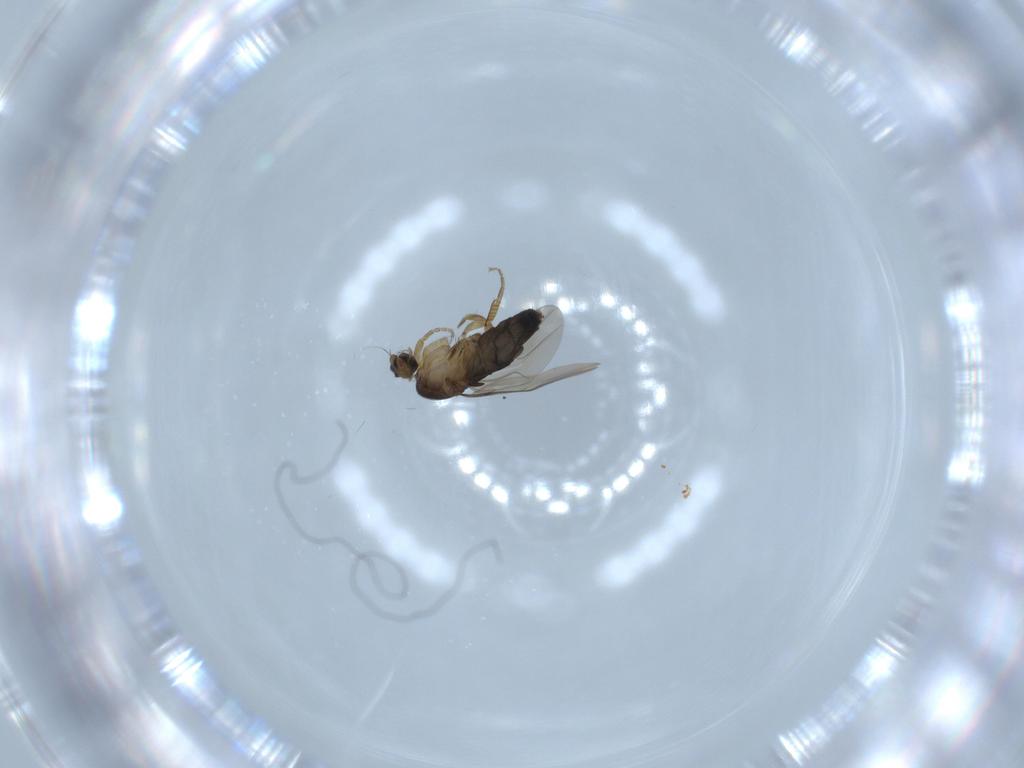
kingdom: Animalia
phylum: Arthropoda
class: Insecta
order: Diptera
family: Phoridae
